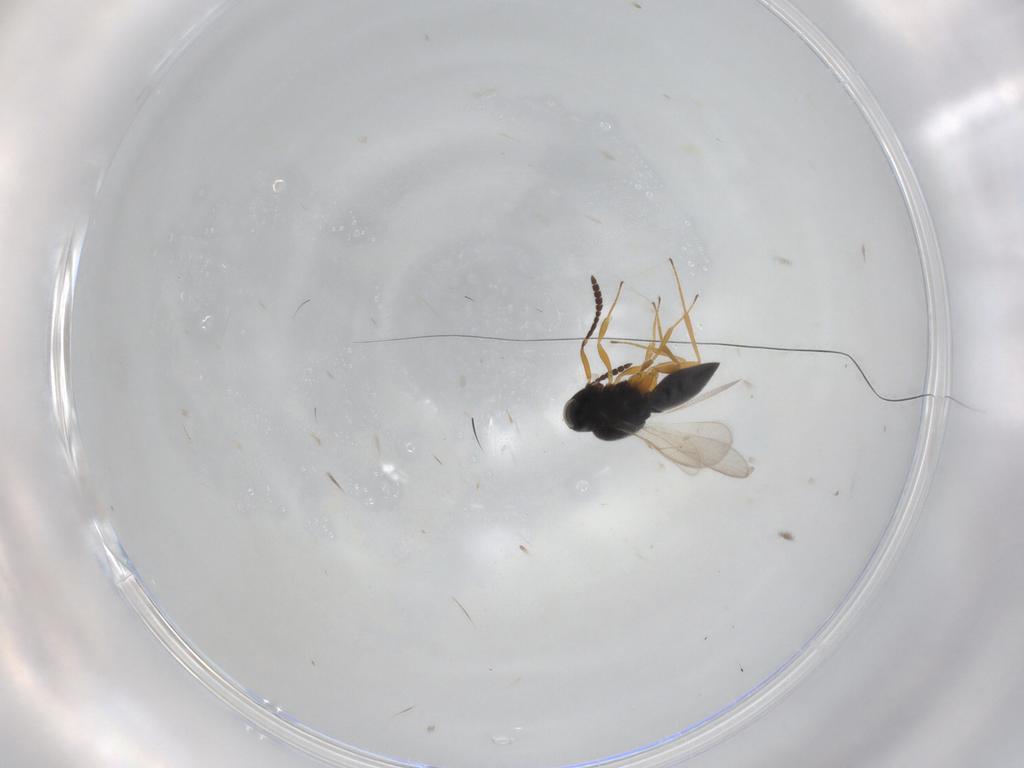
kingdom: Animalia
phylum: Arthropoda
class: Insecta
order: Hymenoptera
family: Scelionidae
